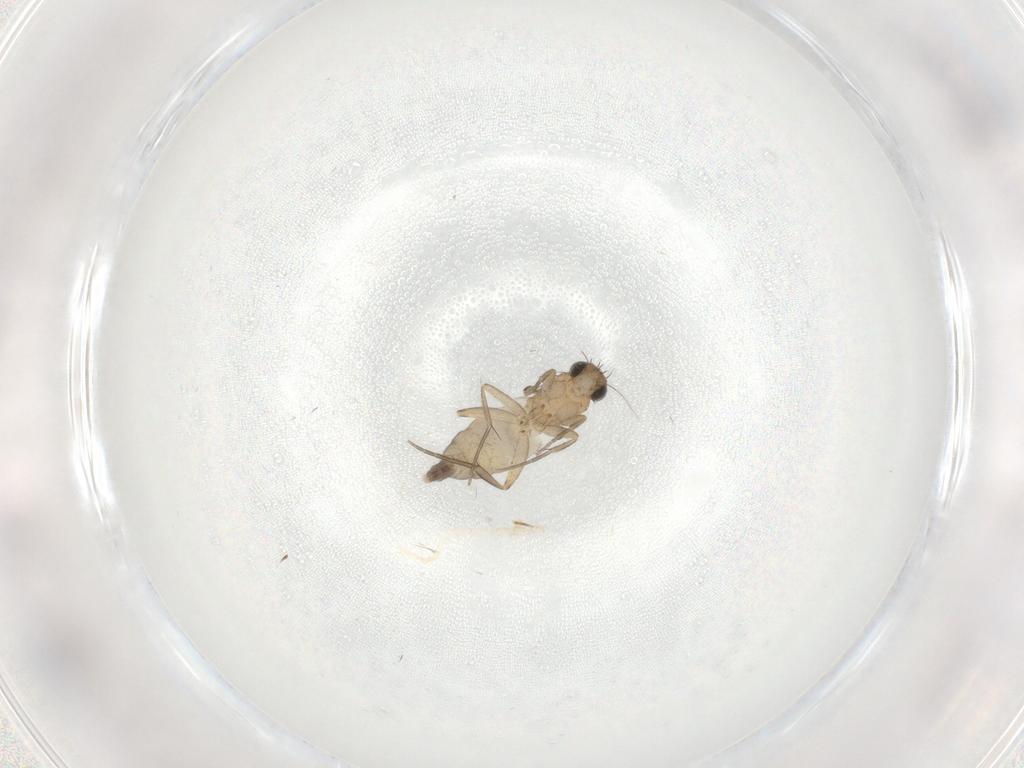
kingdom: Animalia
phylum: Arthropoda
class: Insecta
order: Diptera
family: Phoridae
